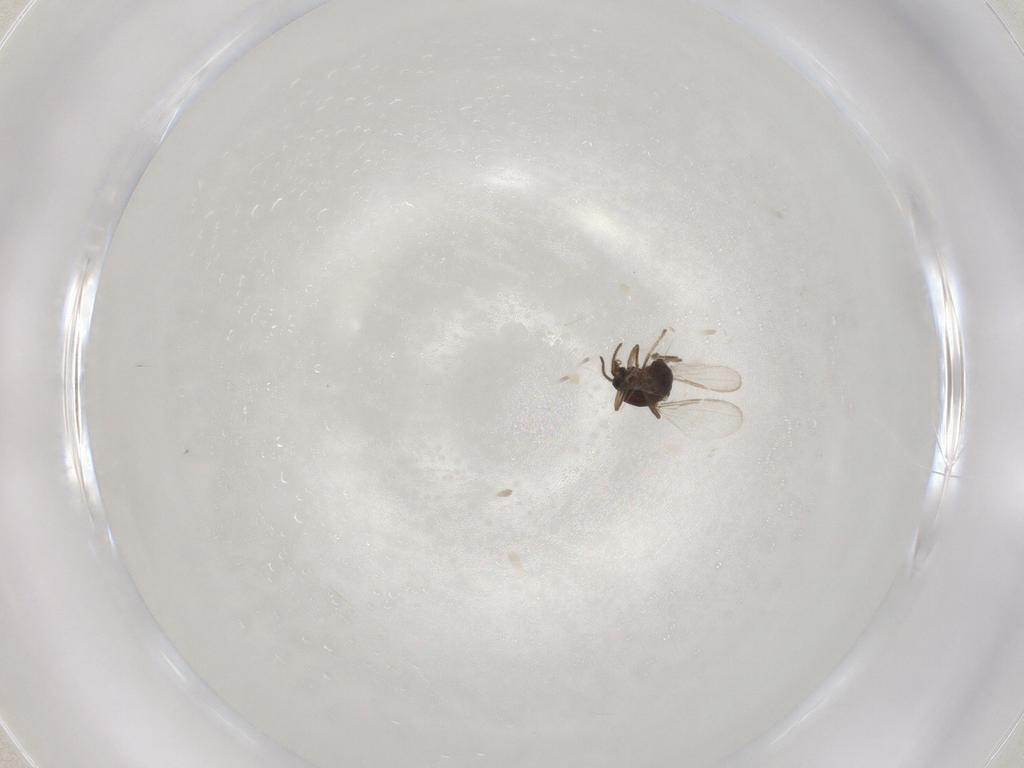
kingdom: Animalia
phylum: Arthropoda
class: Insecta
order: Diptera
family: Ceratopogonidae
